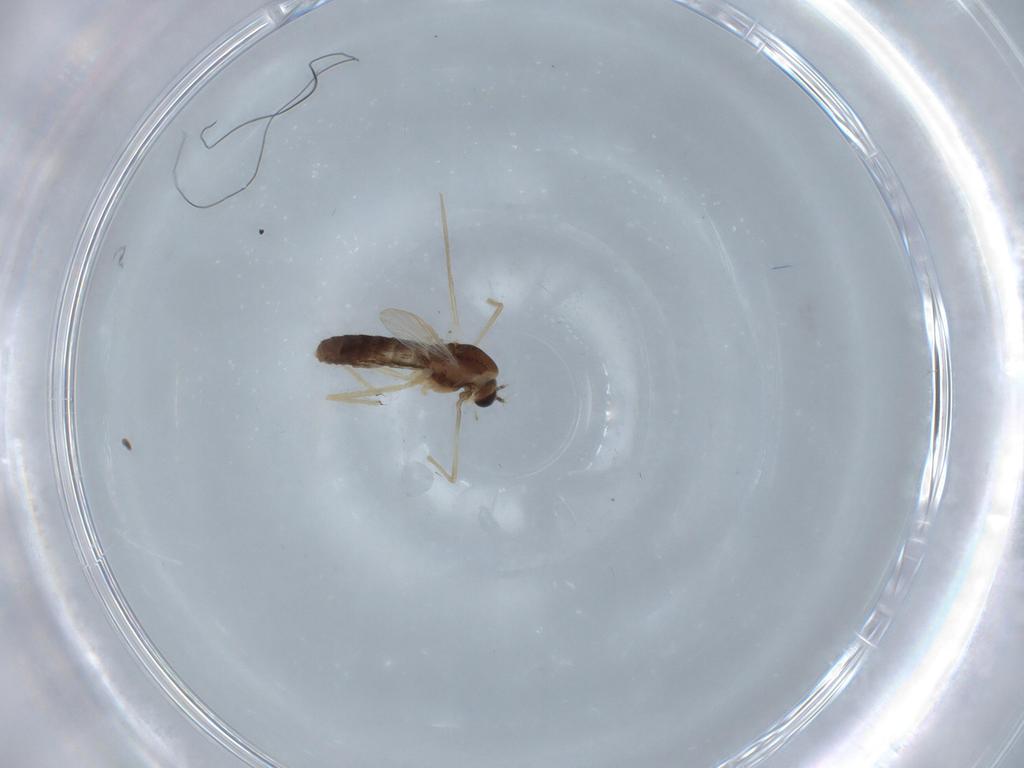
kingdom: Animalia
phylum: Arthropoda
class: Insecta
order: Diptera
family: Cecidomyiidae
